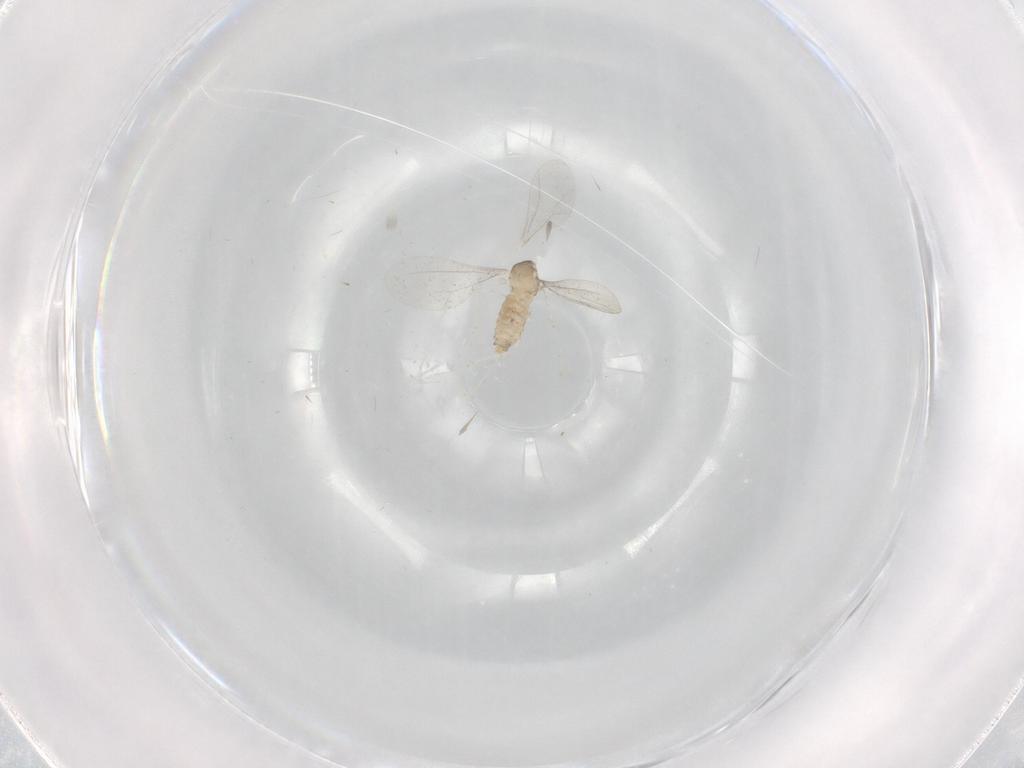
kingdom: Animalia
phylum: Arthropoda
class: Insecta
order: Diptera
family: Cecidomyiidae
